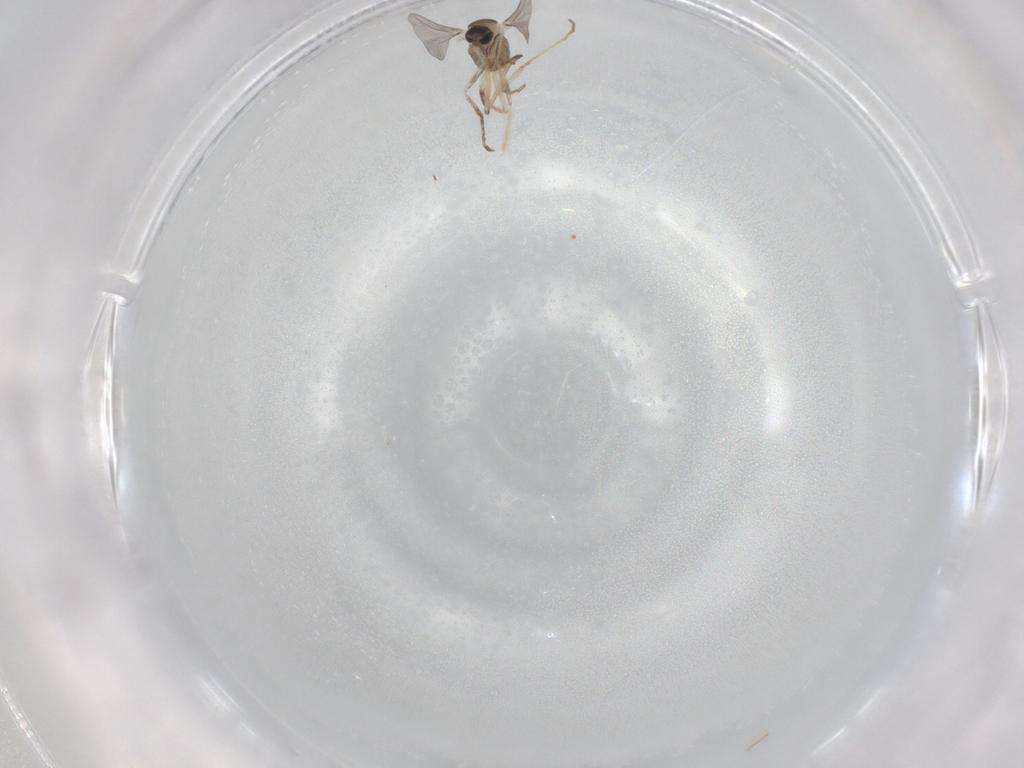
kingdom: Animalia
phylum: Arthropoda
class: Insecta
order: Diptera
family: Cecidomyiidae
